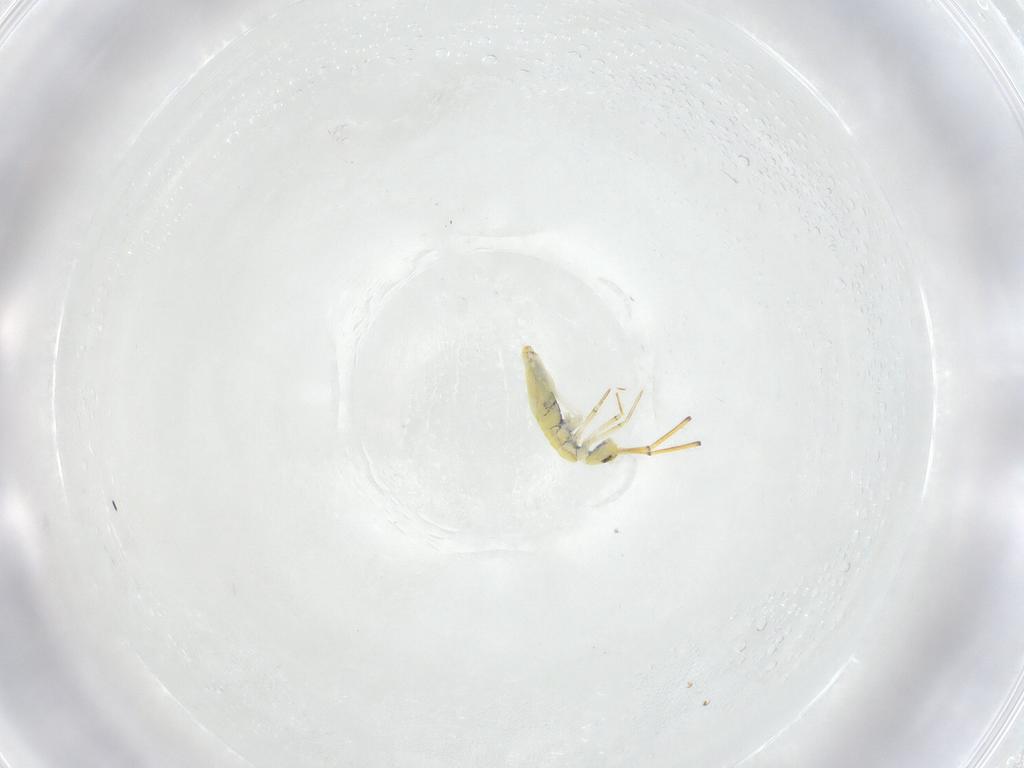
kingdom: Animalia
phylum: Arthropoda
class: Collembola
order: Entomobryomorpha
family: Paronellidae
